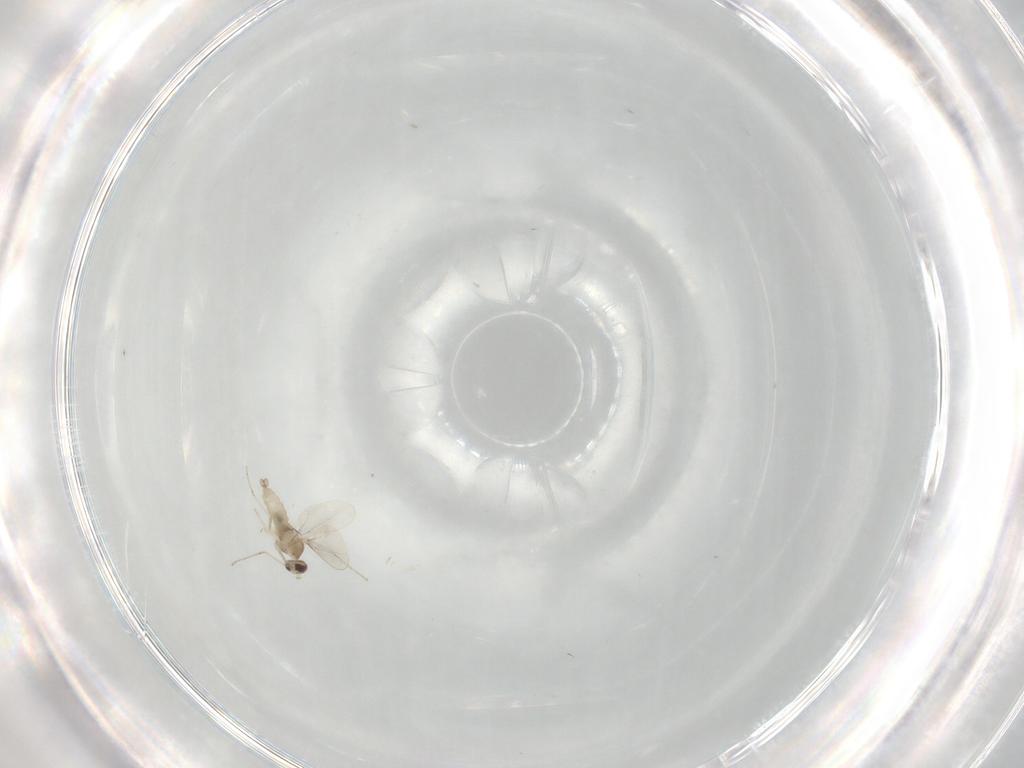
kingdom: Animalia
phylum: Arthropoda
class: Insecta
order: Diptera
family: Cecidomyiidae
